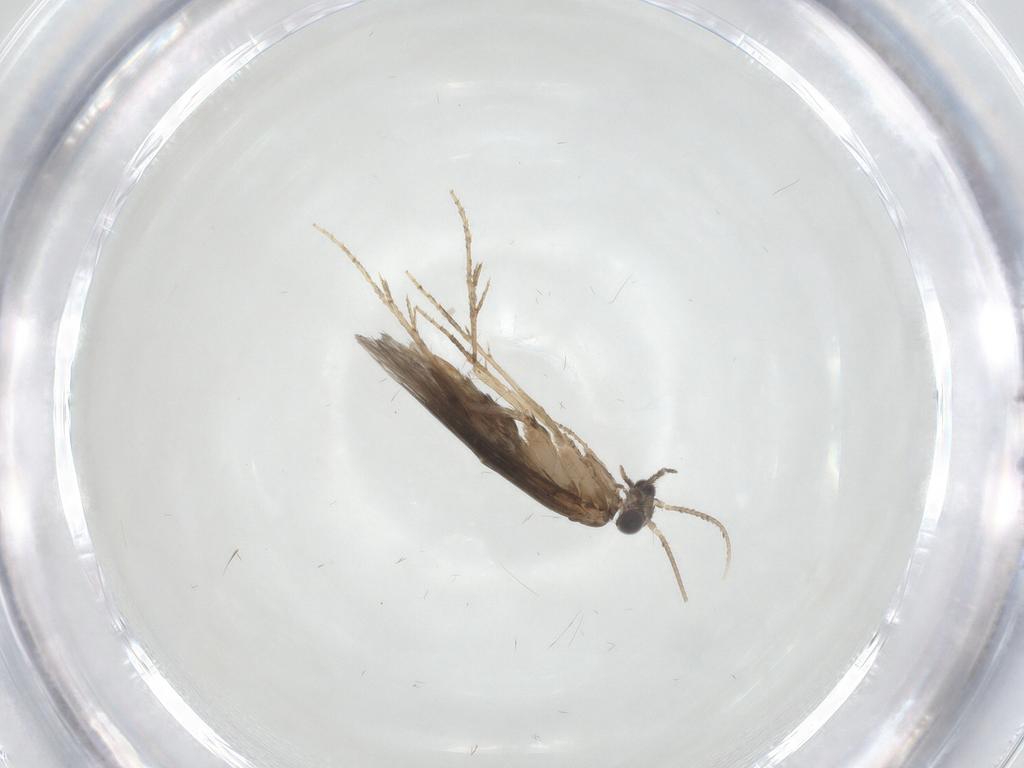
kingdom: Animalia
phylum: Arthropoda
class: Insecta
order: Trichoptera
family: Hydroptilidae
